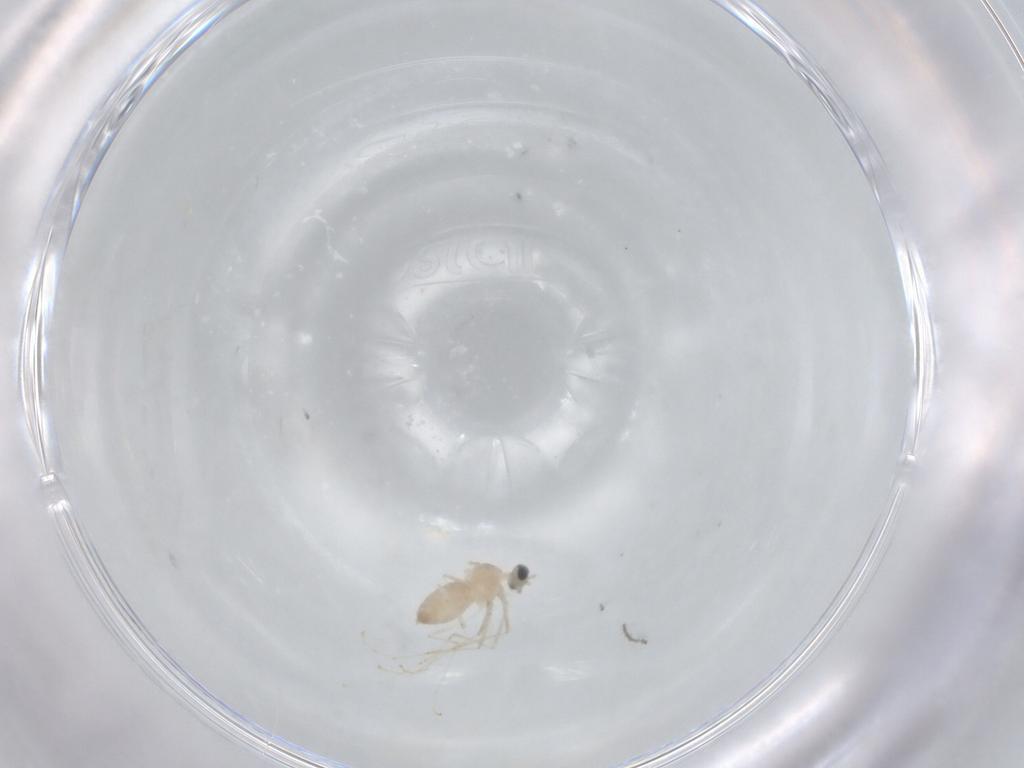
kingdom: Animalia
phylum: Arthropoda
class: Insecta
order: Diptera
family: Cecidomyiidae
